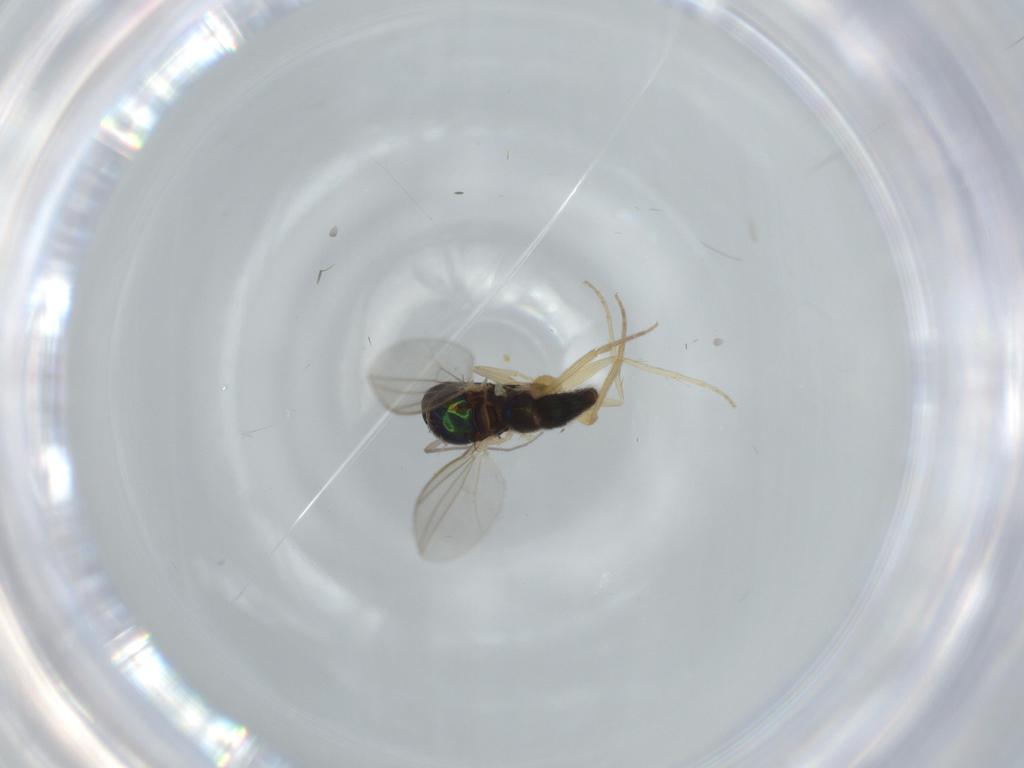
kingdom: Animalia
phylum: Arthropoda
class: Insecta
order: Diptera
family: Dolichopodidae
